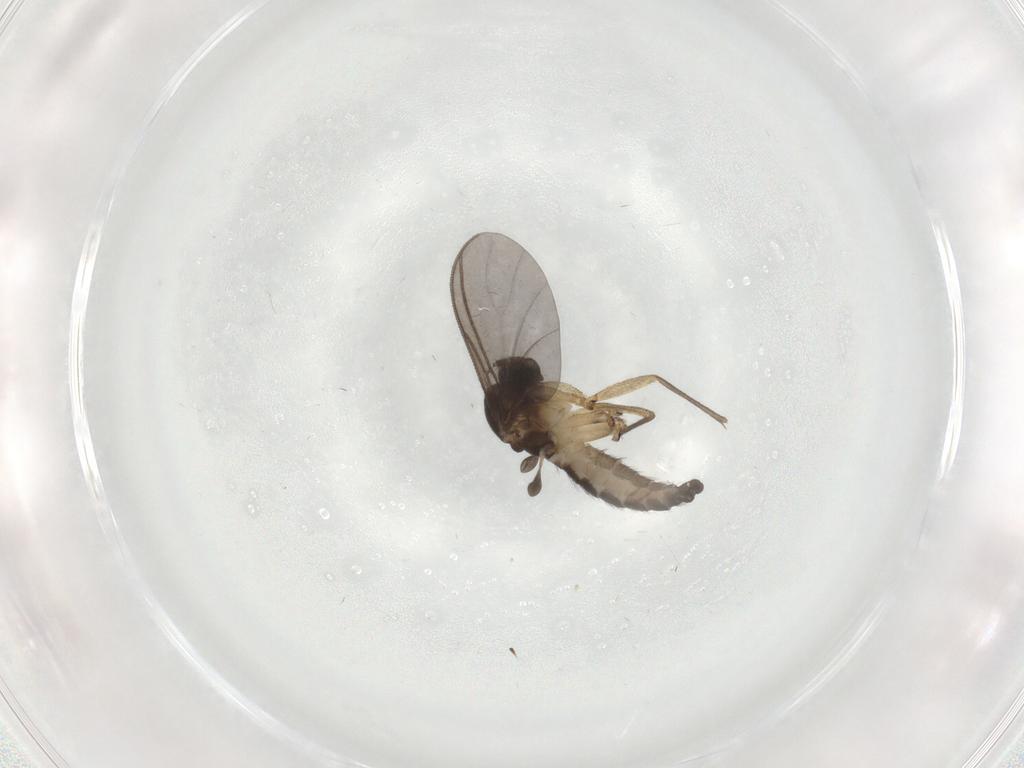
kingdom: Animalia
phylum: Arthropoda
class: Insecta
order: Diptera
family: Sciaridae
